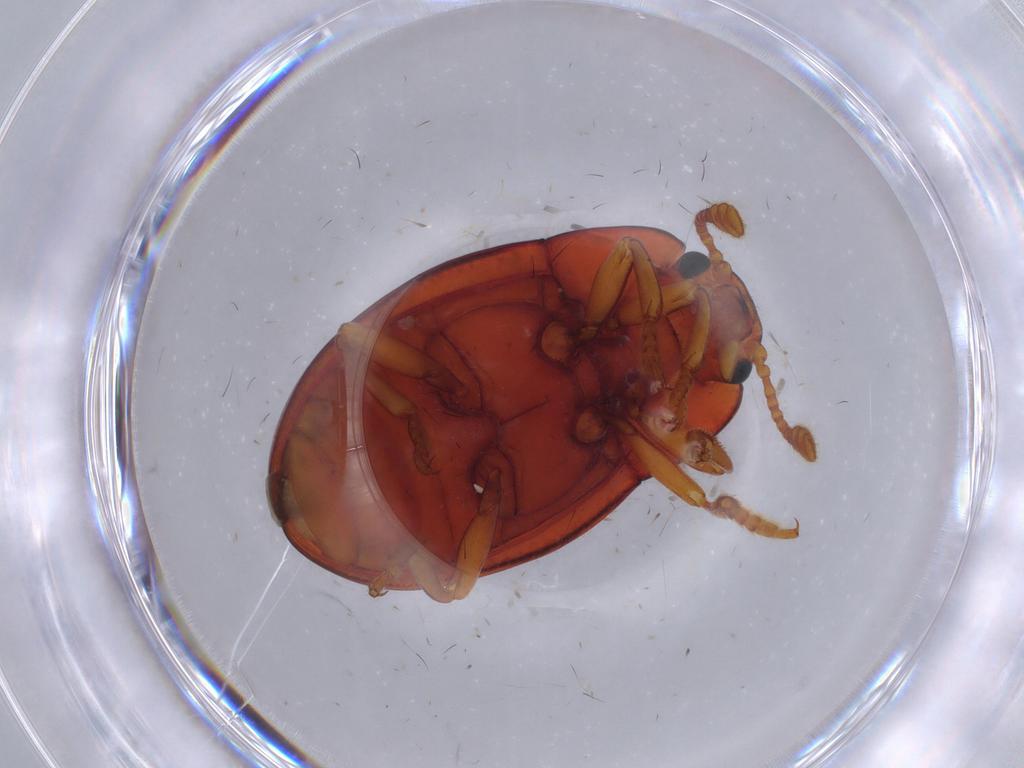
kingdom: Animalia
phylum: Arthropoda
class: Insecta
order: Coleoptera
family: Erotylidae
